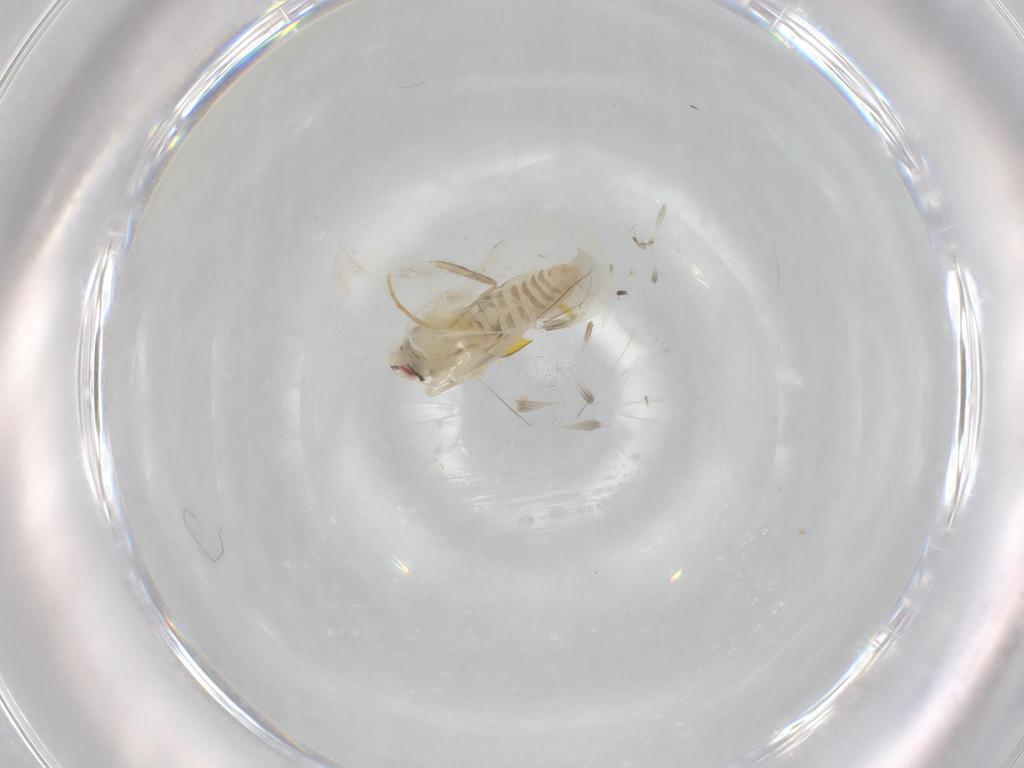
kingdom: Animalia
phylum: Arthropoda
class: Insecta
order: Hemiptera
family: Aleyrodidae
